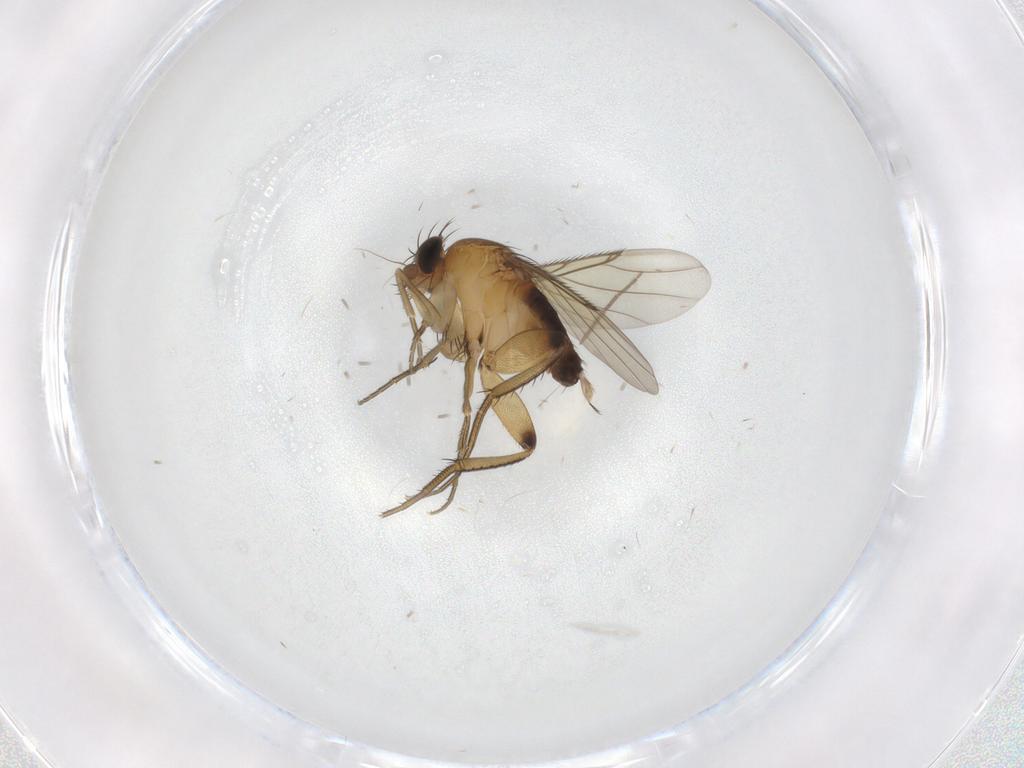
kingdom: Animalia
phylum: Arthropoda
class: Insecta
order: Diptera
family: Phoridae
